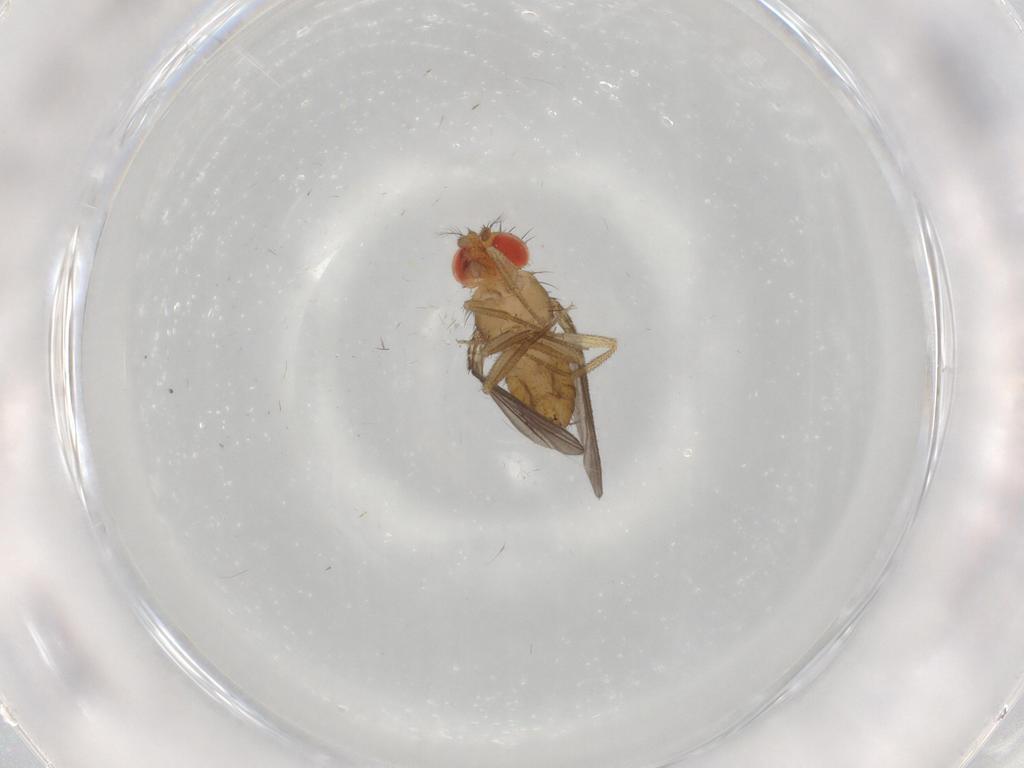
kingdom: Animalia
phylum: Arthropoda
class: Insecta
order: Diptera
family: Drosophilidae
